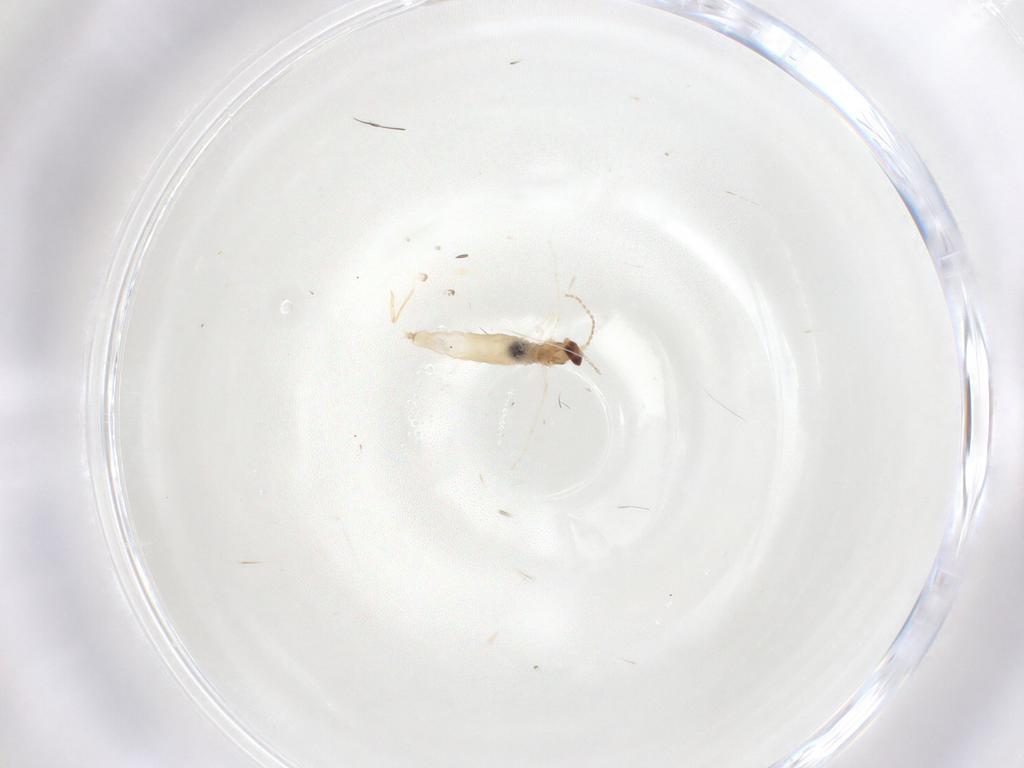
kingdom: Animalia
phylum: Arthropoda
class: Insecta
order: Diptera
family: Cecidomyiidae
